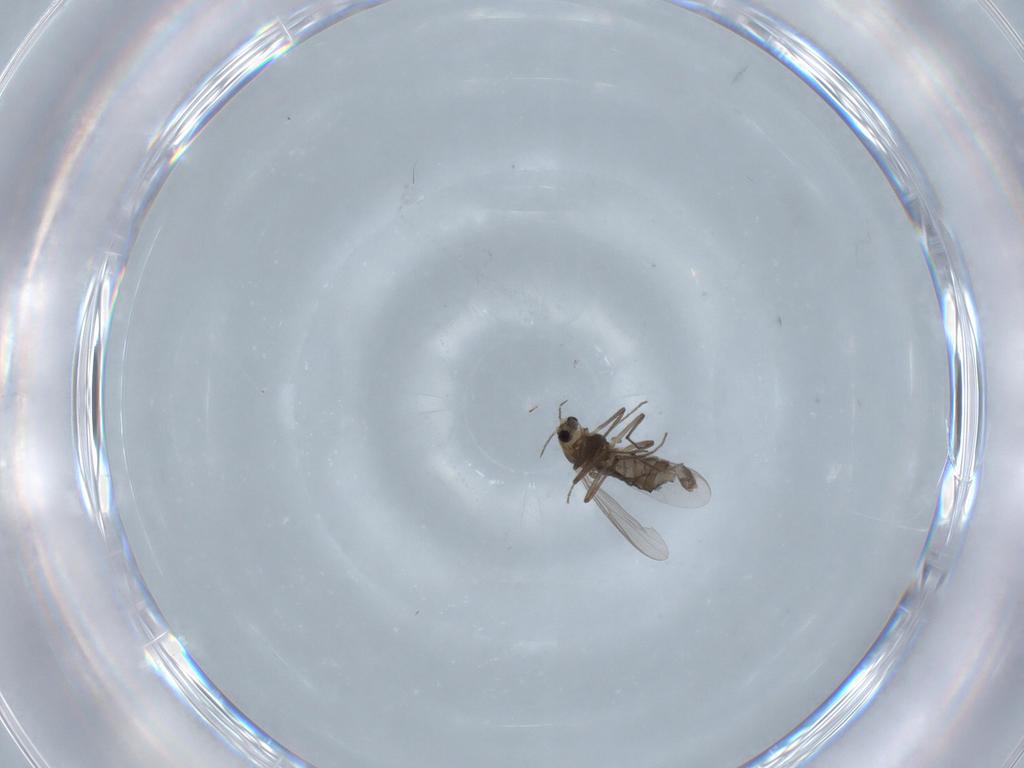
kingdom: Animalia
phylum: Arthropoda
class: Insecta
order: Diptera
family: Chironomidae
